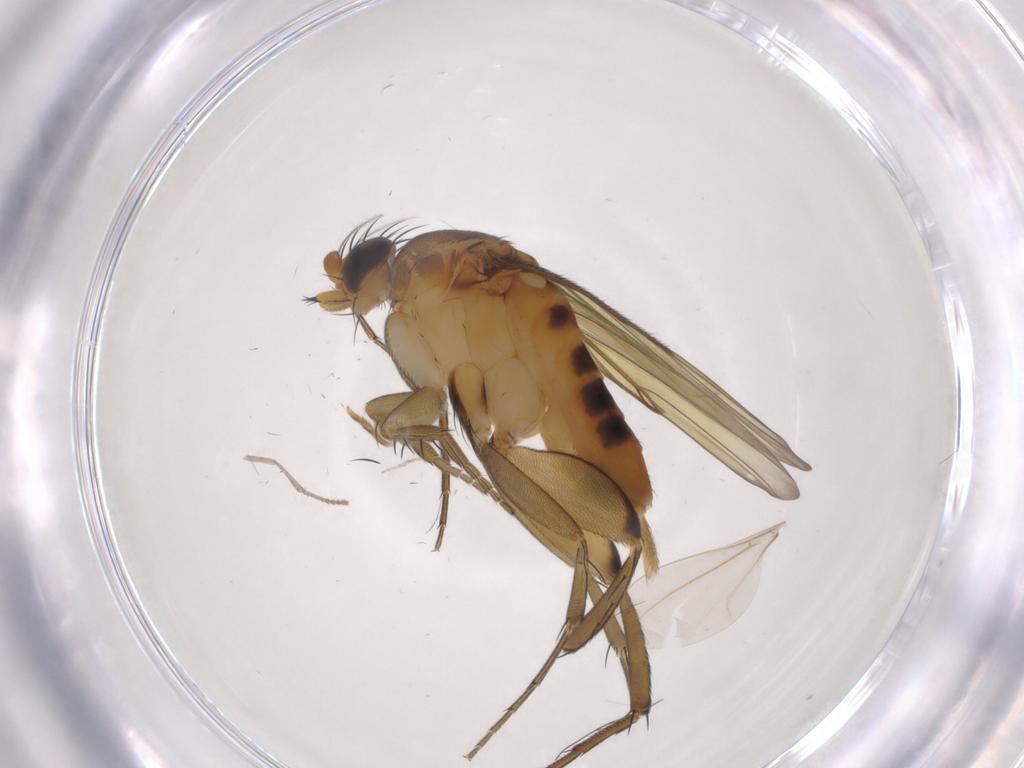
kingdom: Animalia
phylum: Arthropoda
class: Insecta
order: Diptera
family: Phoridae
